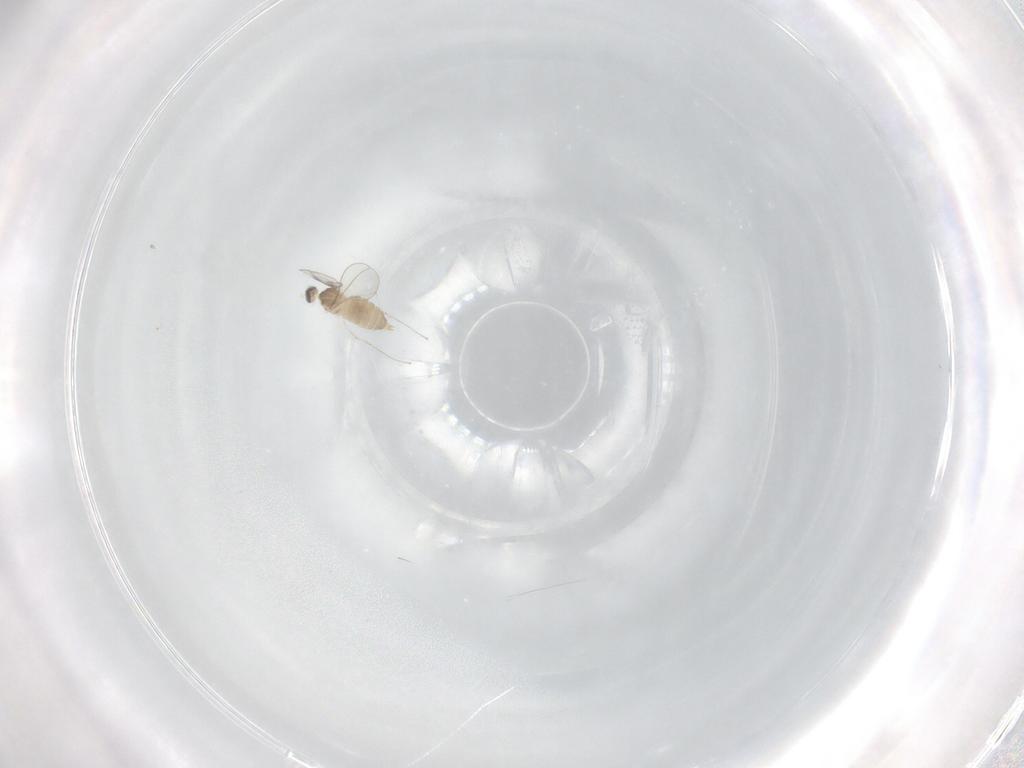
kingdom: Animalia
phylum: Arthropoda
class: Insecta
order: Diptera
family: Cecidomyiidae
